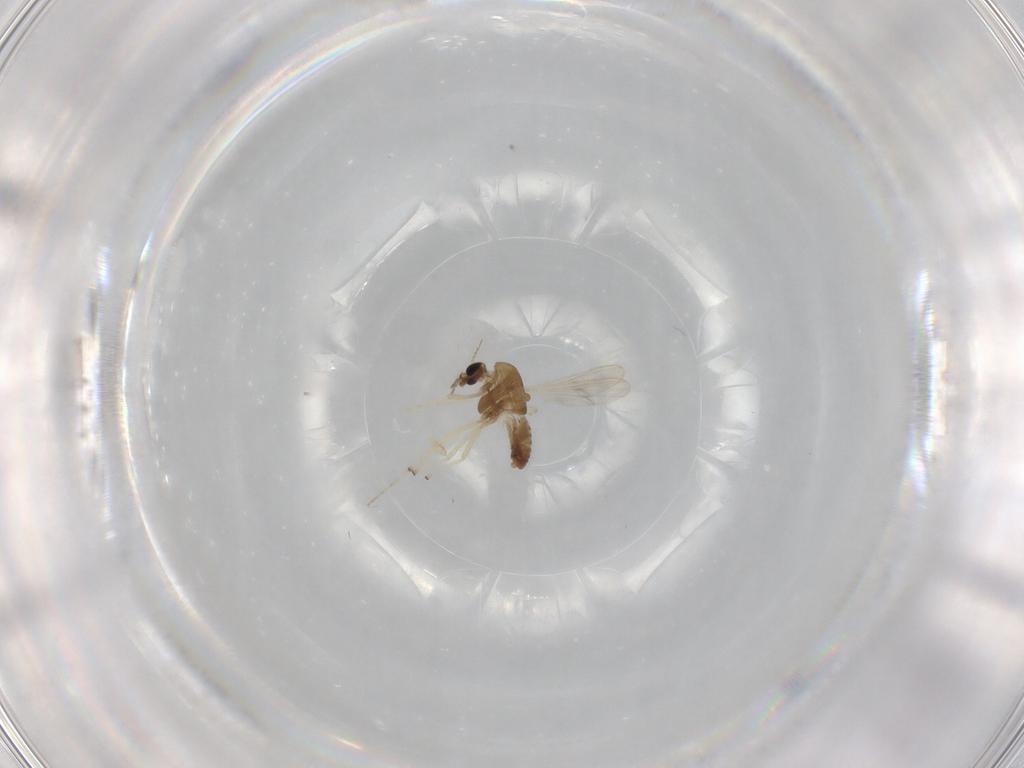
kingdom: Animalia
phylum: Arthropoda
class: Insecta
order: Diptera
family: Chironomidae
